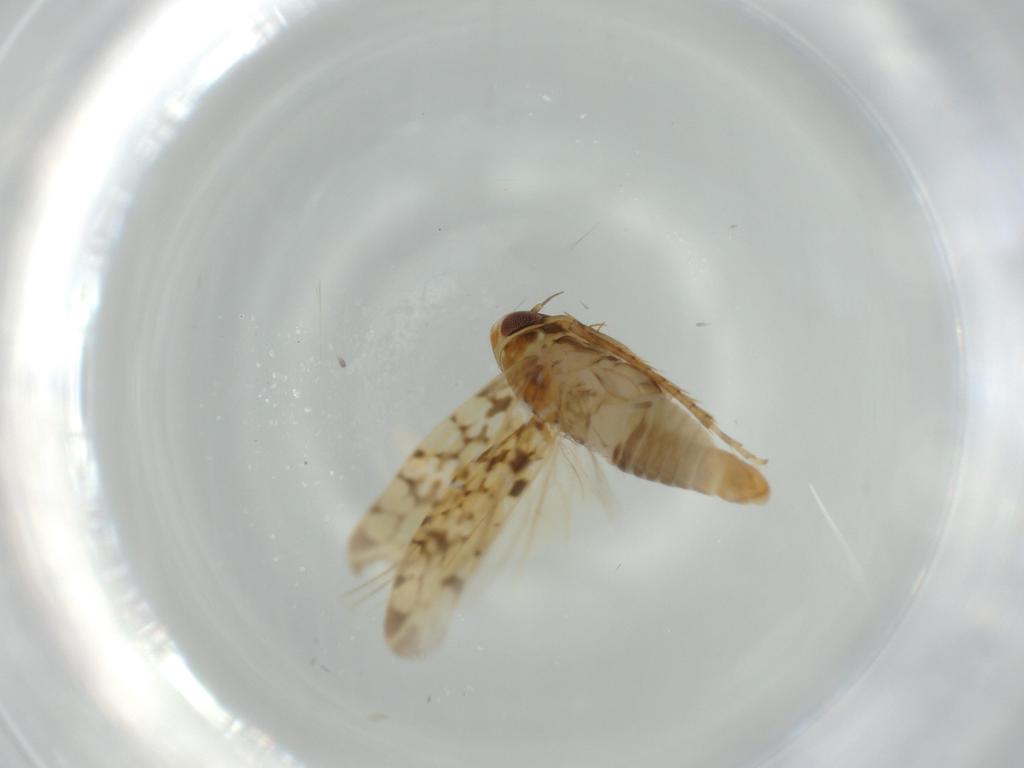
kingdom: Animalia
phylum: Arthropoda
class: Insecta
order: Hemiptera
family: Cicadellidae
